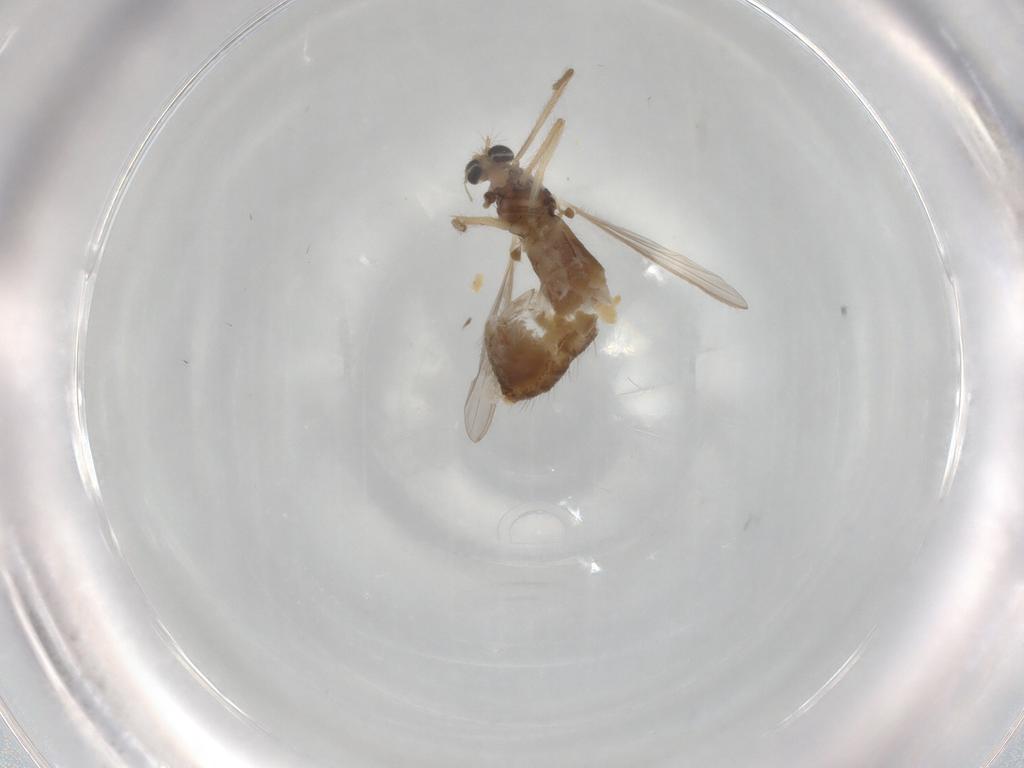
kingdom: Animalia
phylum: Arthropoda
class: Insecta
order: Diptera
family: Chironomidae
